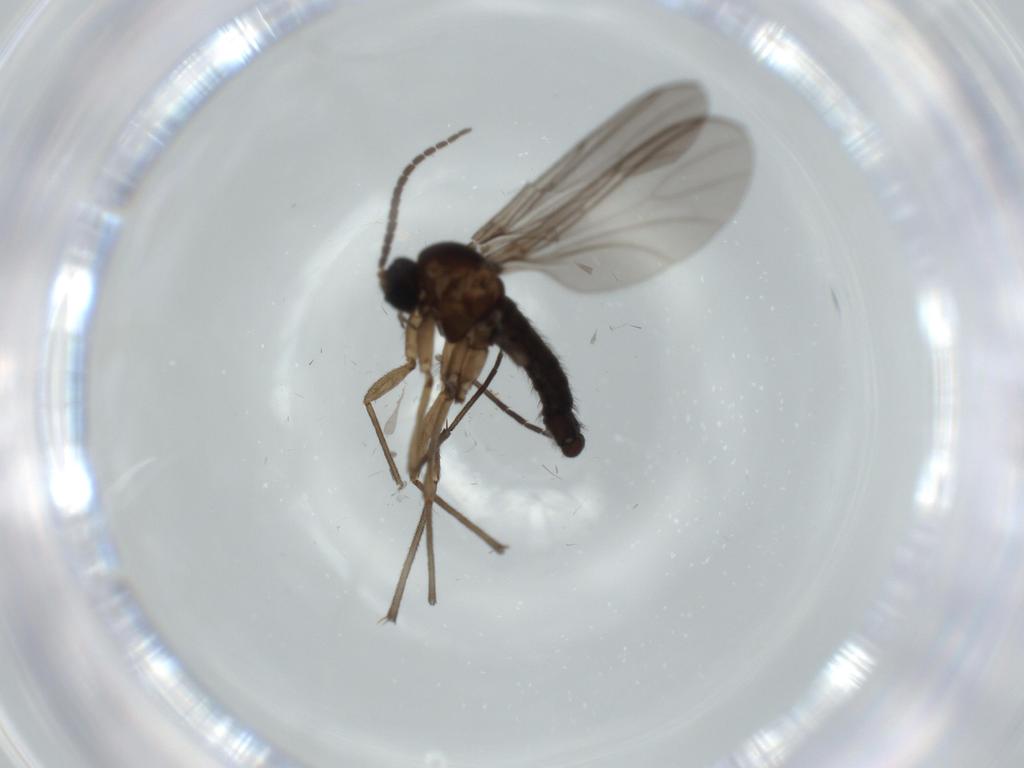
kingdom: Animalia
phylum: Arthropoda
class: Insecta
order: Diptera
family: Sciaridae
